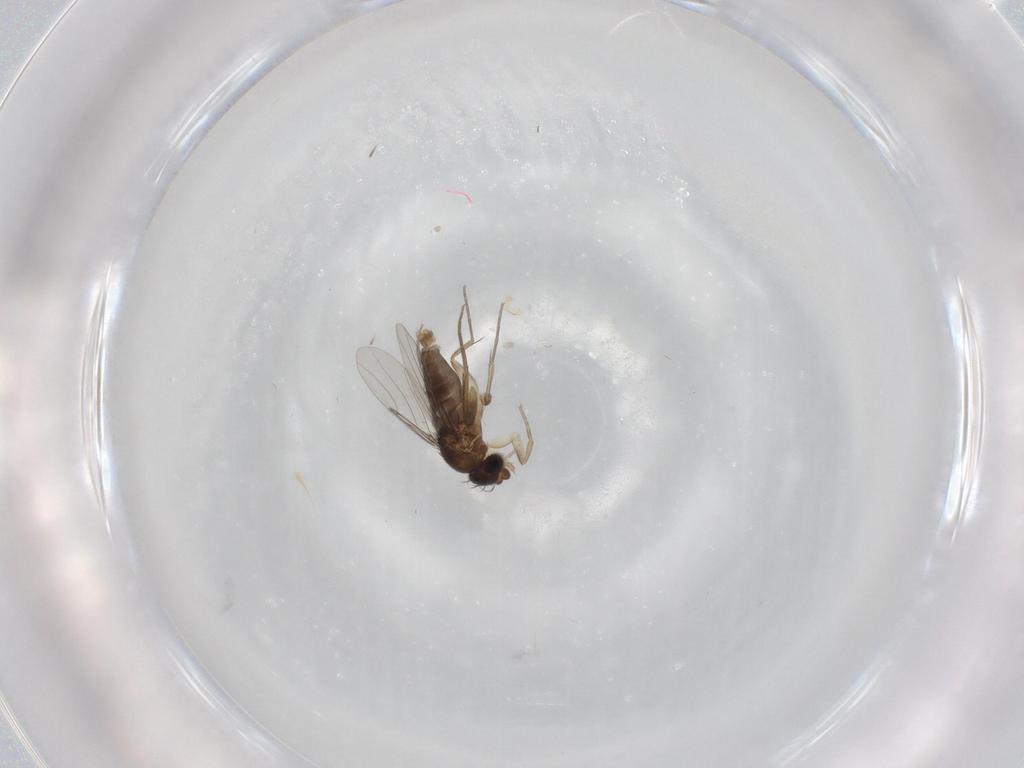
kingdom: Animalia
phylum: Arthropoda
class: Insecta
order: Diptera
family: Phoridae
